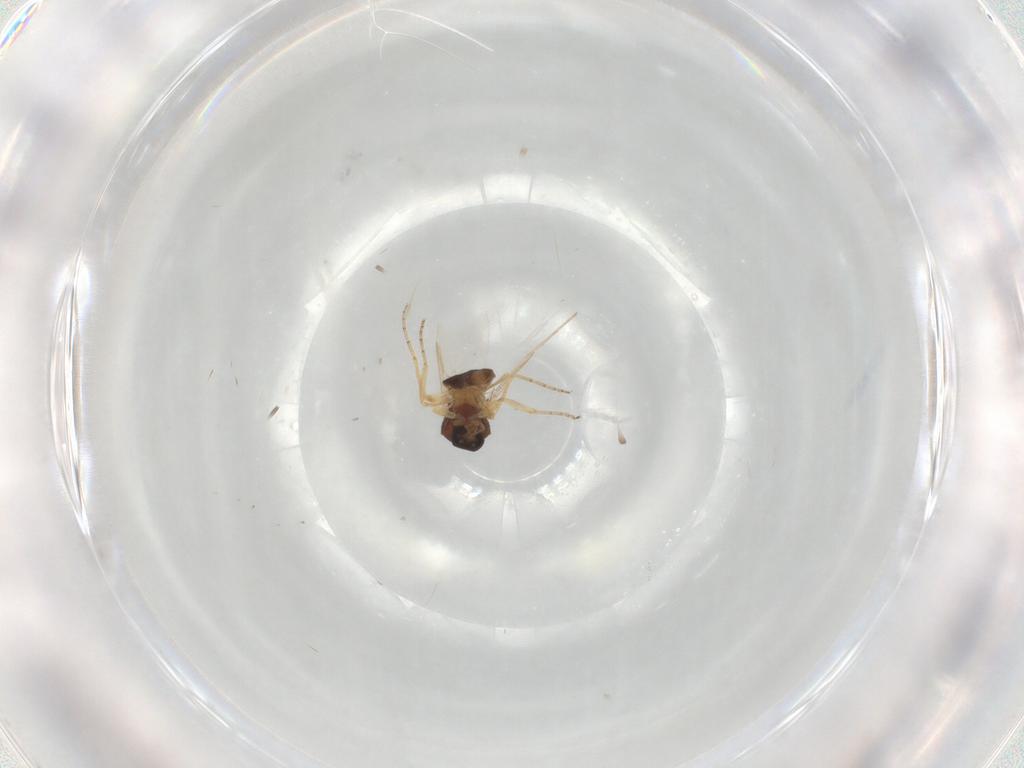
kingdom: Animalia
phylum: Arthropoda
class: Insecta
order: Diptera
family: Ceratopogonidae
